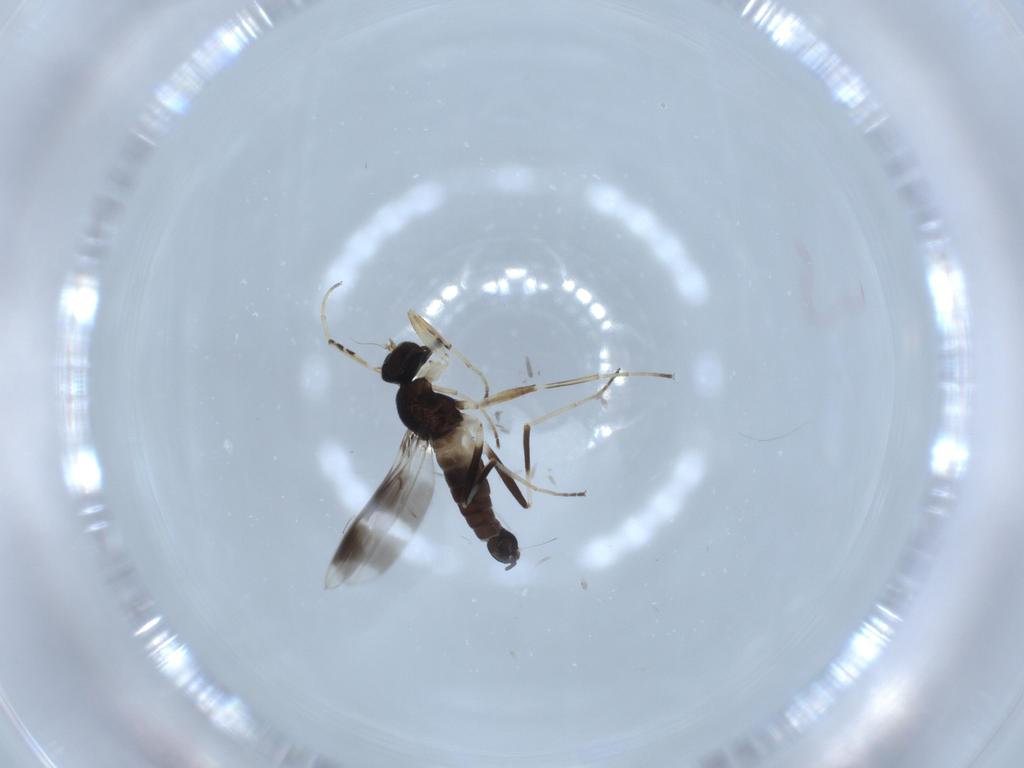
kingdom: Animalia
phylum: Arthropoda
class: Insecta
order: Diptera
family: Hybotidae
